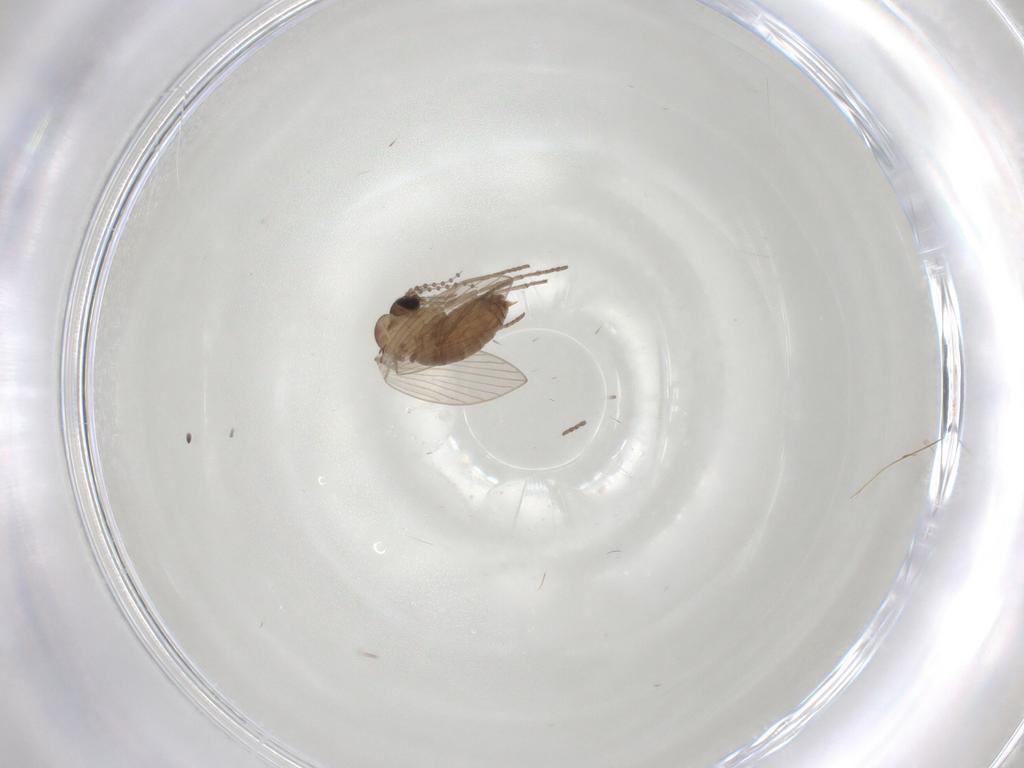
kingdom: Animalia
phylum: Arthropoda
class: Insecta
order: Diptera
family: Psychodidae
